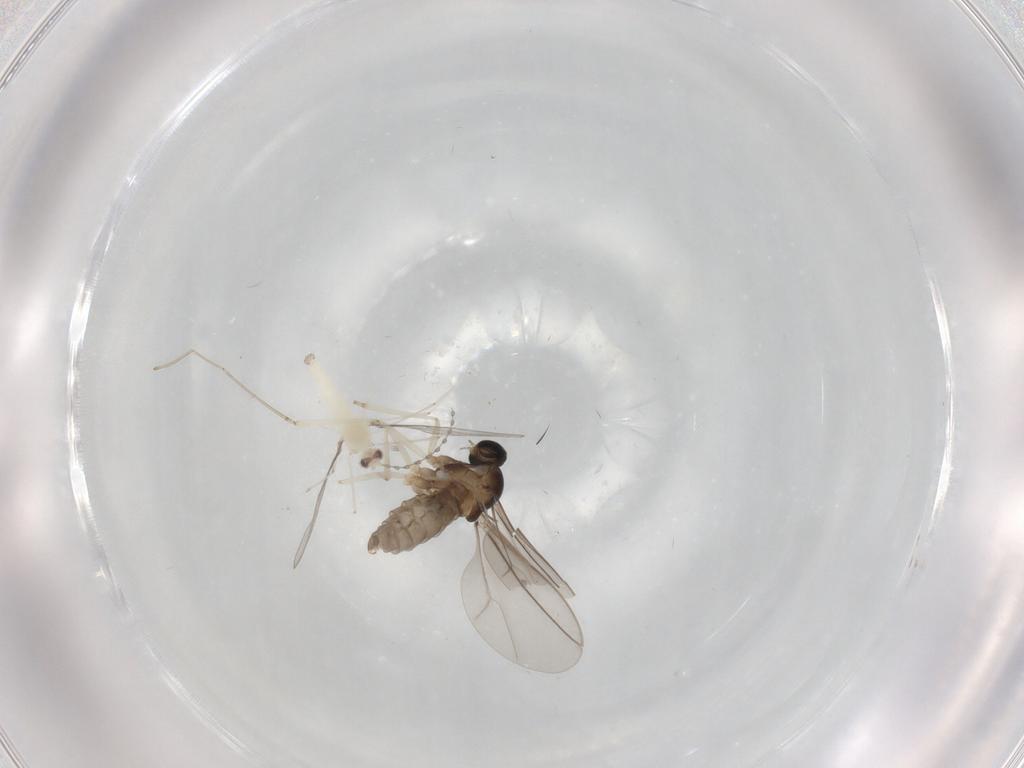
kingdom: Animalia
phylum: Arthropoda
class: Insecta
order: Diptera
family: Cecidomyiidae
